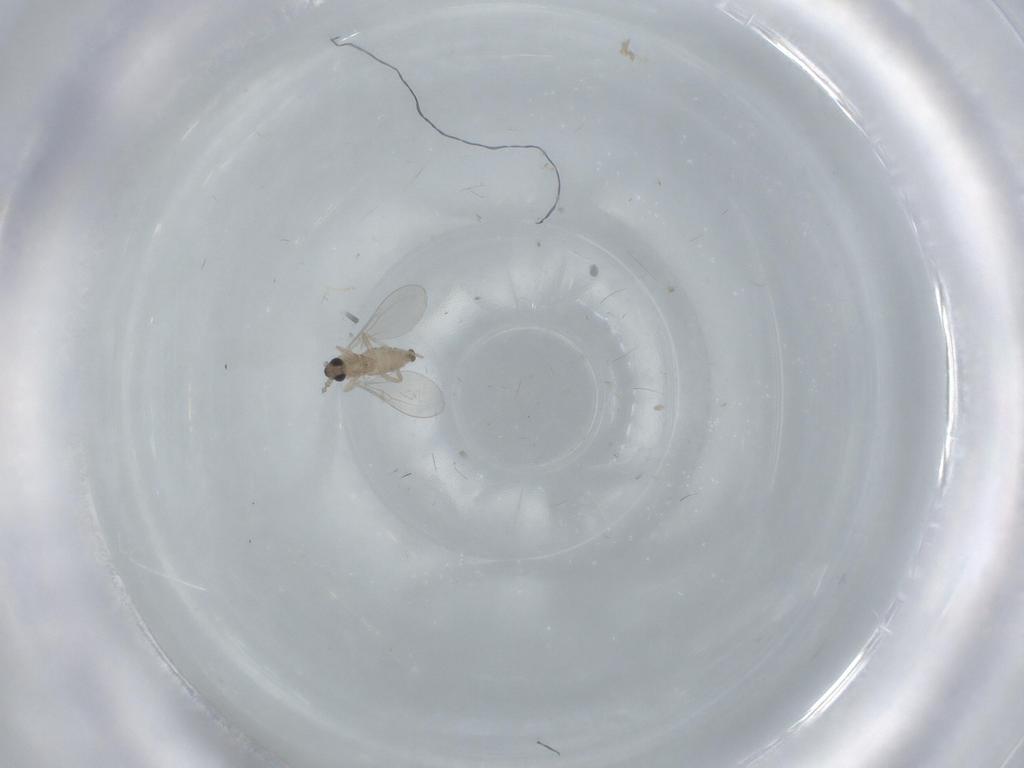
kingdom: Animalia
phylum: Arthropoda
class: Insecta
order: Diptera
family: Cecidomyiidae
